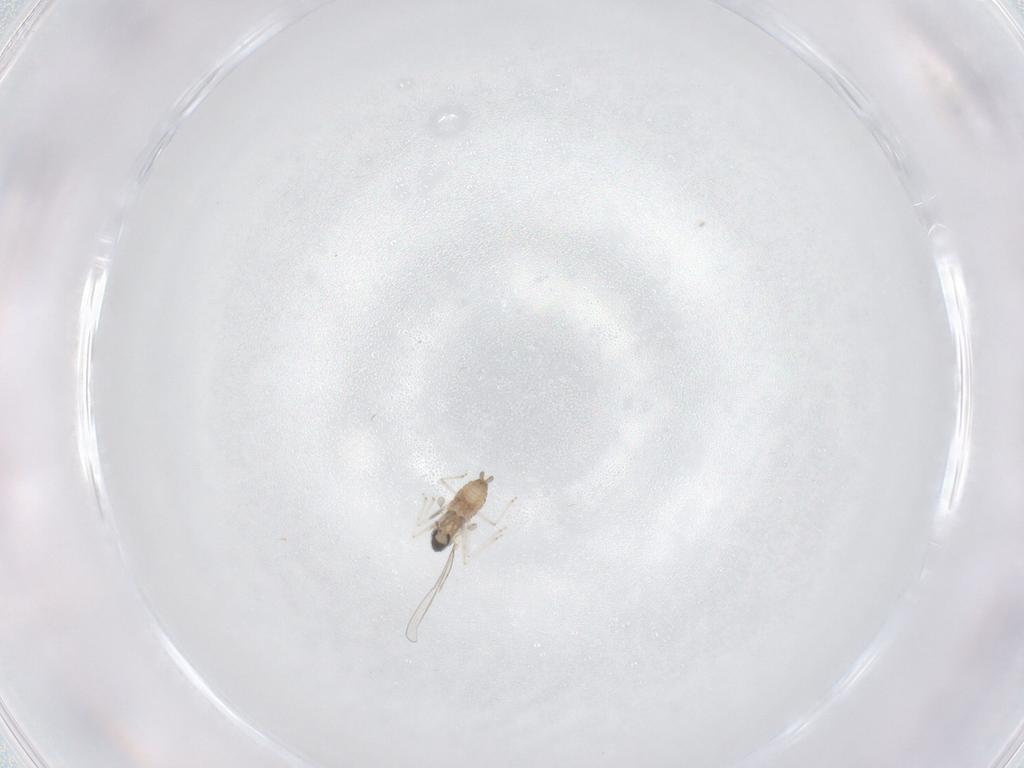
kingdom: Animalia
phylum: Arthropoda
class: Insecta
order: Diptera
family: Cecidomyiidae
